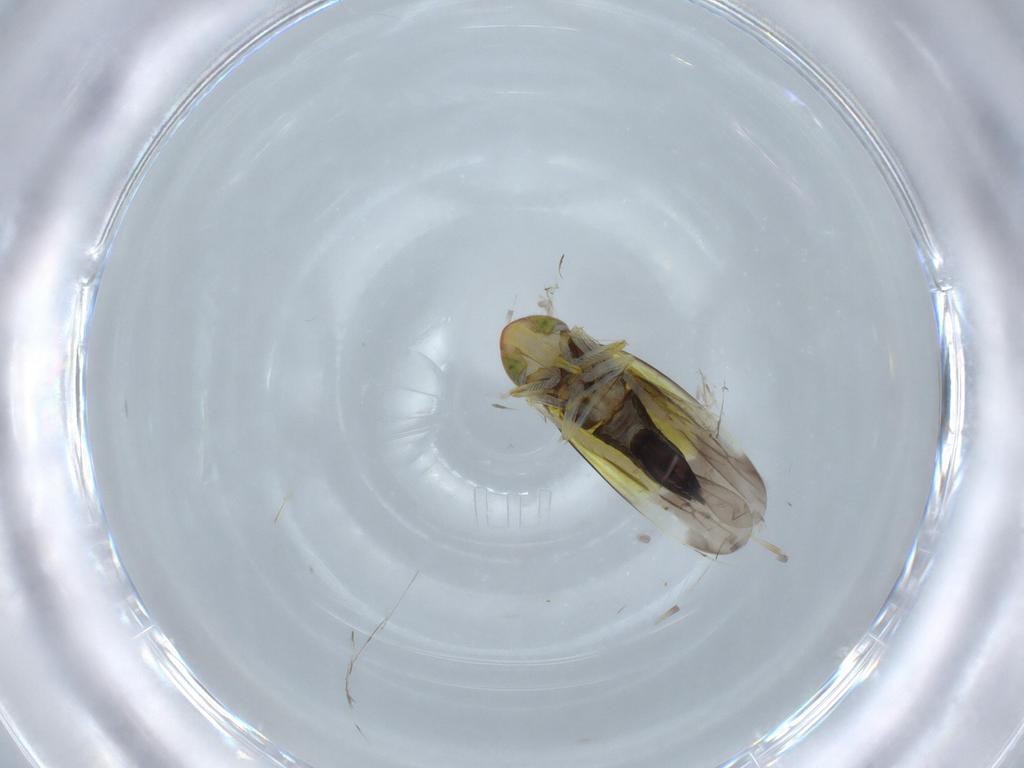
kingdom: Animalia
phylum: Arthropoda
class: Insecta
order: Hemiptera
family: Cicadellidae
